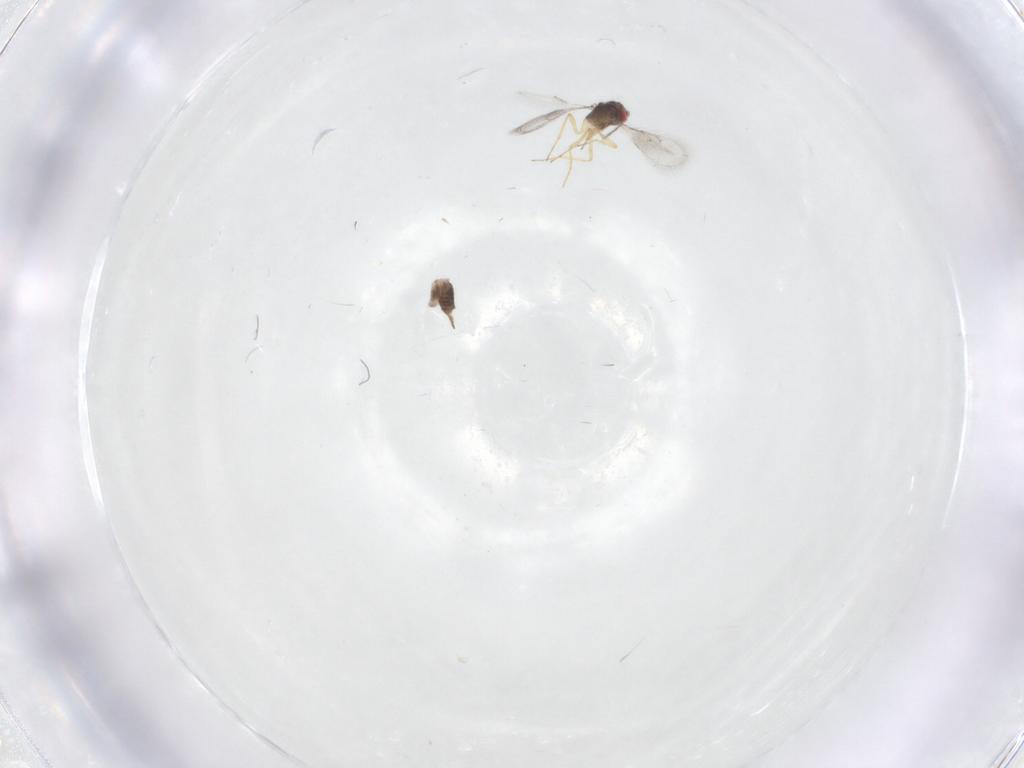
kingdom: Animalia
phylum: Arthropoda
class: Insecta
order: Hymenoptera
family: Eulophidae
